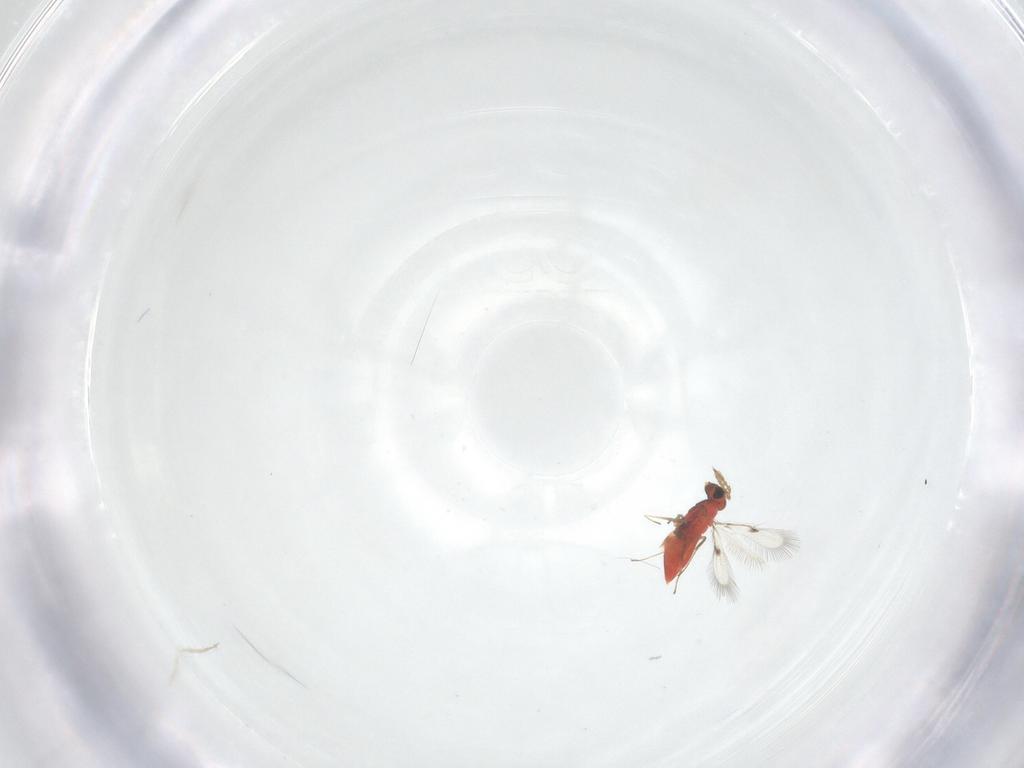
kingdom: Animalia
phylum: Arthropoda
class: Insecta
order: Hymenoptera
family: Trichogrammatidae
